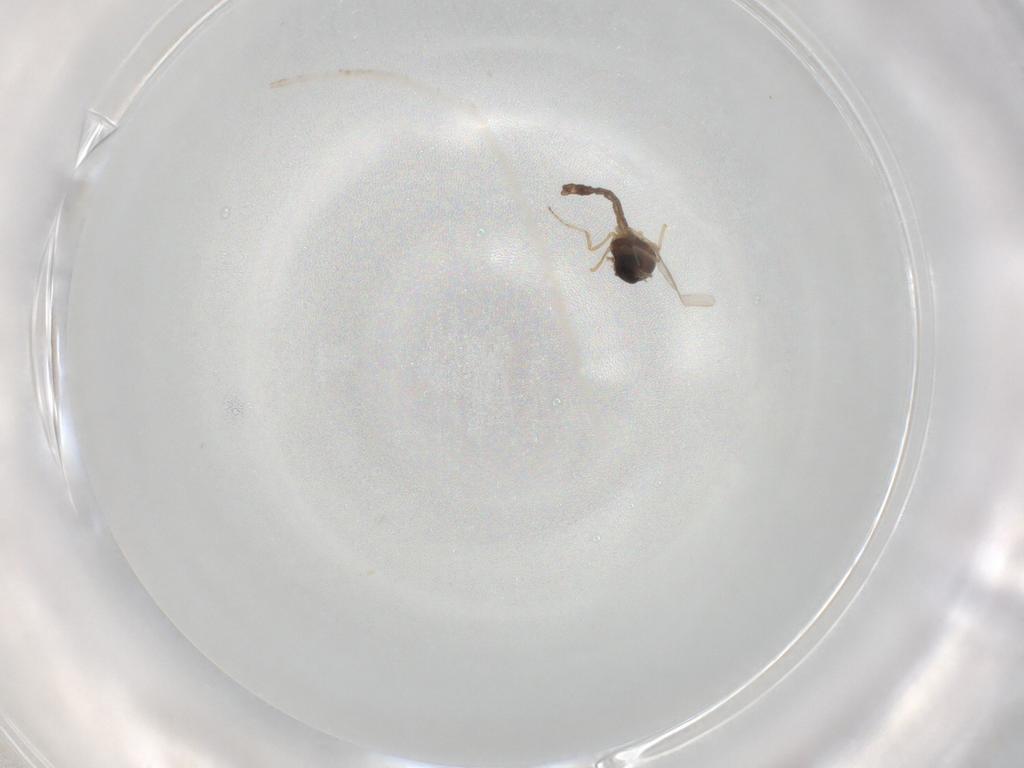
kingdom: Animalia
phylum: Arthropoda
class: Insecta
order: Diptera
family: Ceratopogonidae
